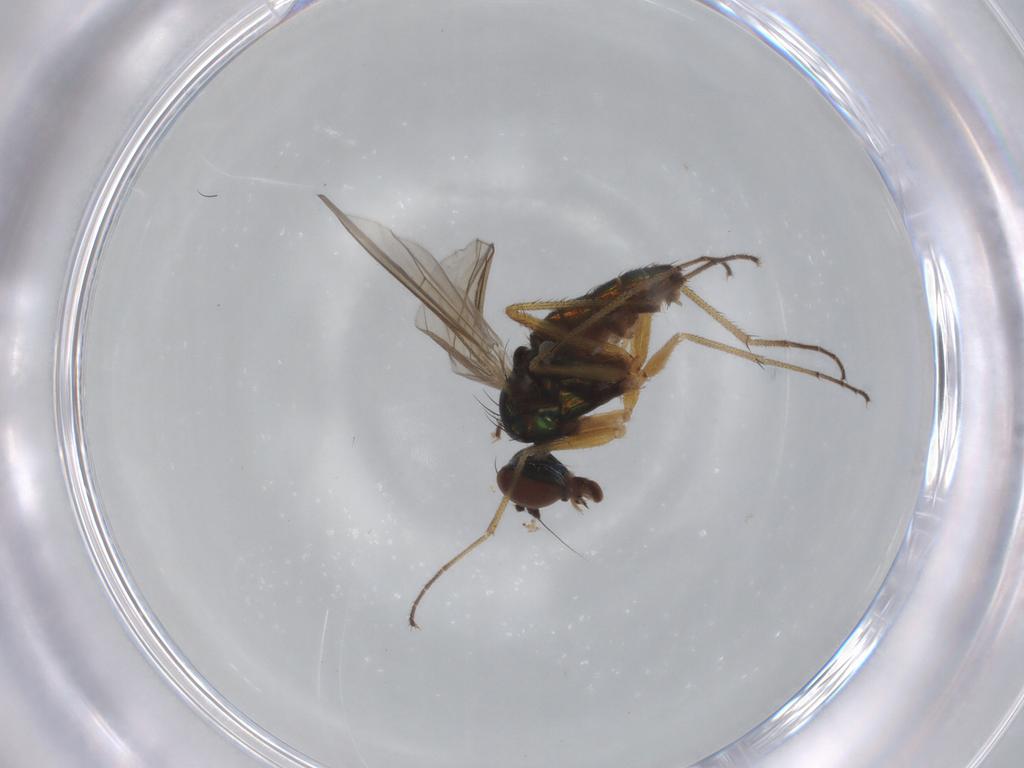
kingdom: Animalia
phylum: Arthropoda
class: Insecta
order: Diptera
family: Dolichopodidae
